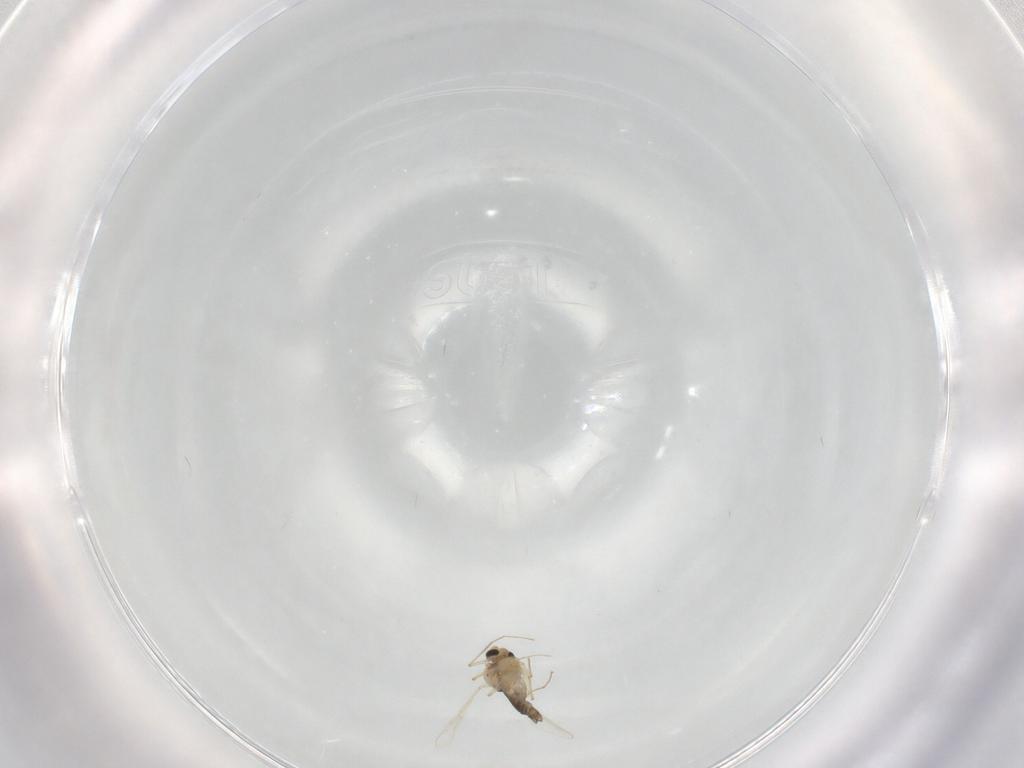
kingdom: Animalia
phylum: Arthropoda
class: Insecta
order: Diptera
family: Chironomidae
